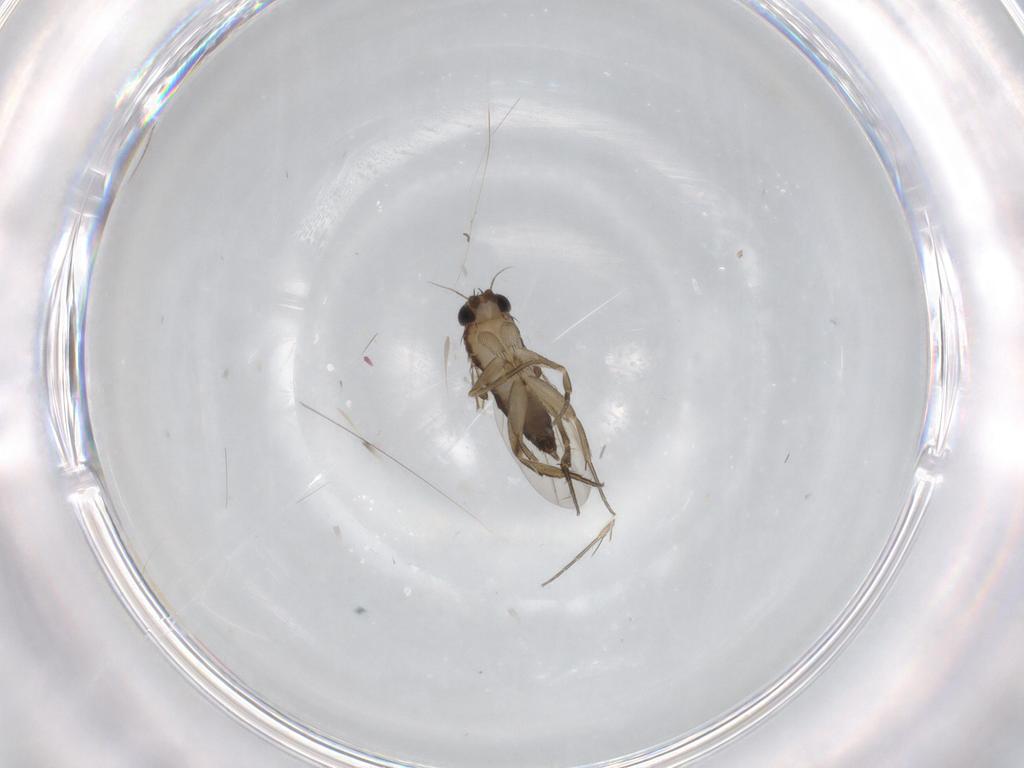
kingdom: Animalia
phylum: Arthropoda
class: Insecta
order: Diptera
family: Phoridae
